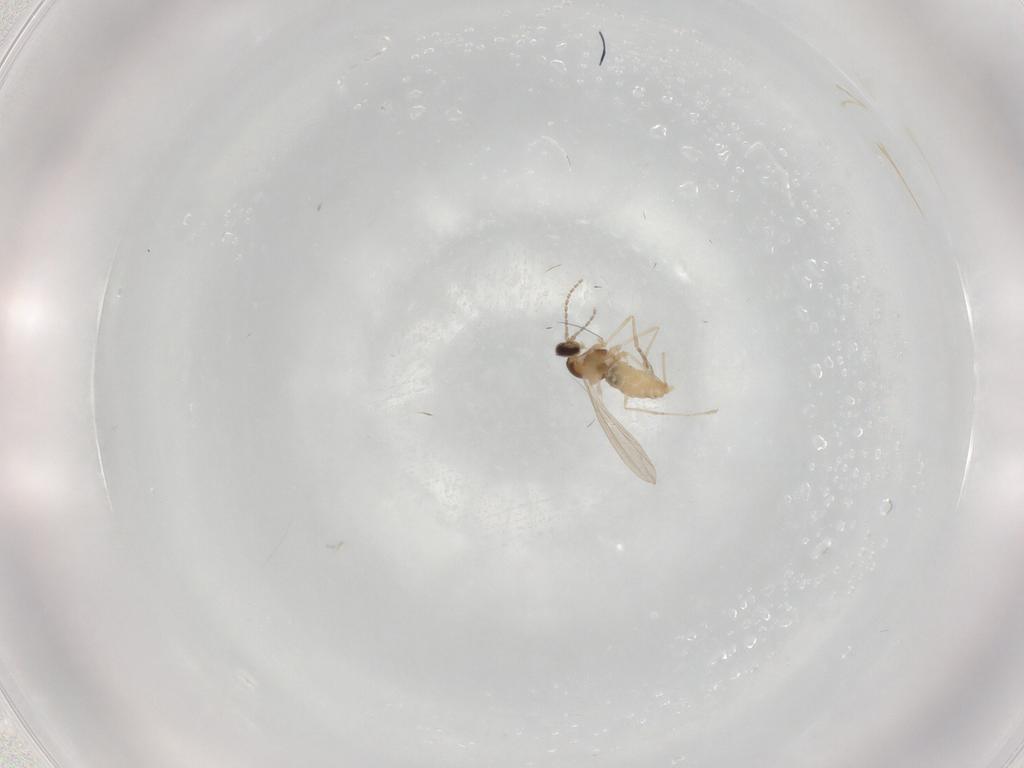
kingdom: Animalia
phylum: Arthropoda
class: Insecta
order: Diptera
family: Cecidomyiidae
